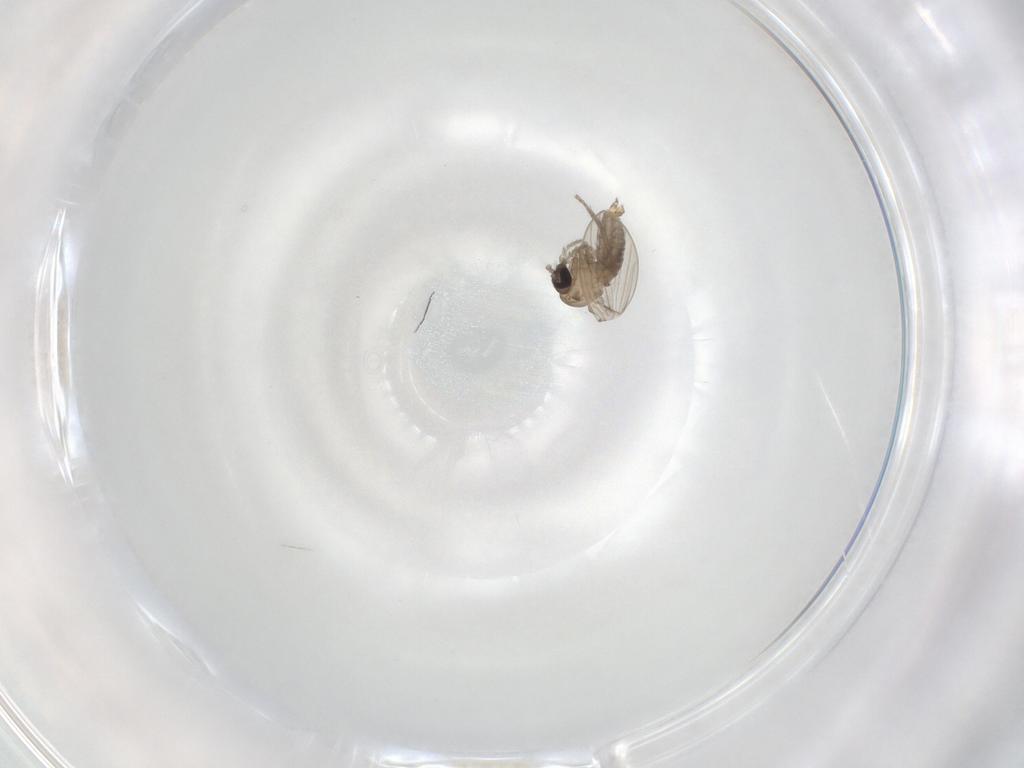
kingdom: Animalia
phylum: Arthropoda
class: Insecta
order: Diptera
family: Psychodidae
